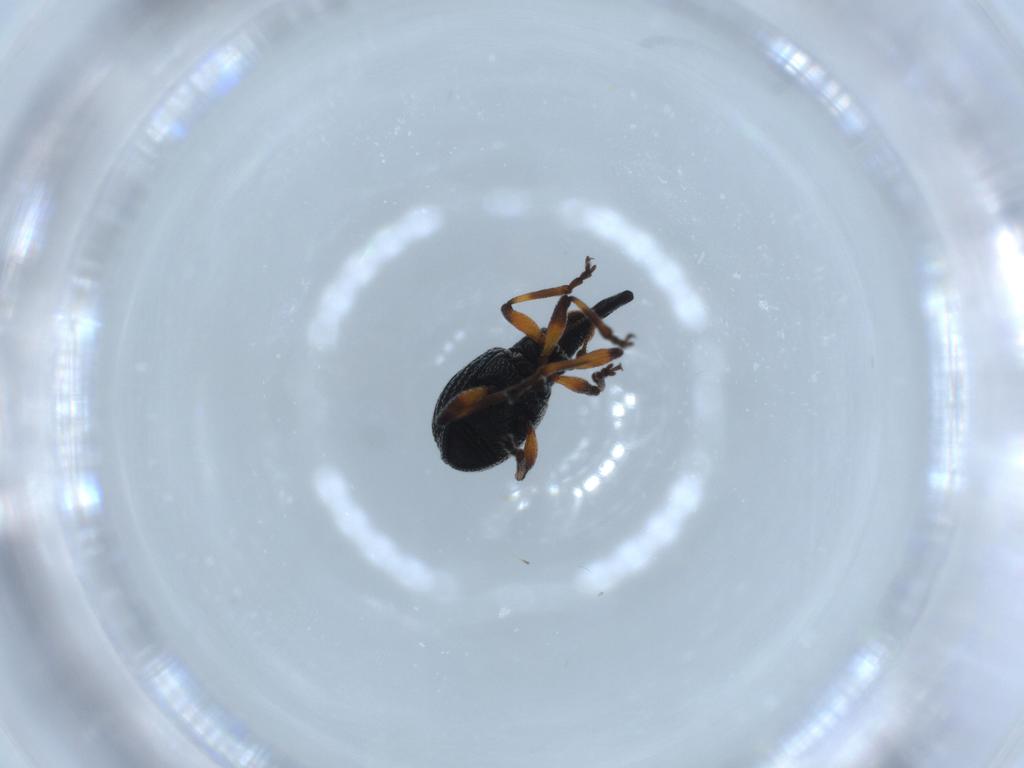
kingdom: Animalia
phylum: Arthropoda
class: Insecta
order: Coleoptera
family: Brentidae
